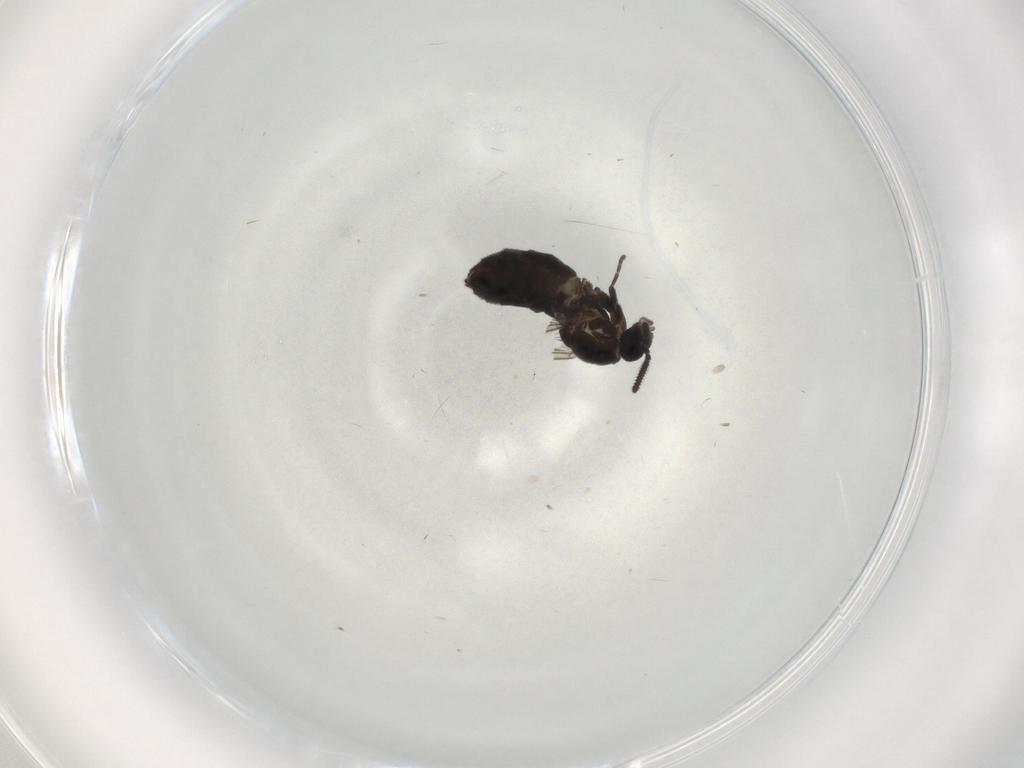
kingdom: Animalia
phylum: Arthropoda
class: Insecta
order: Diptera
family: Scatopsidae
